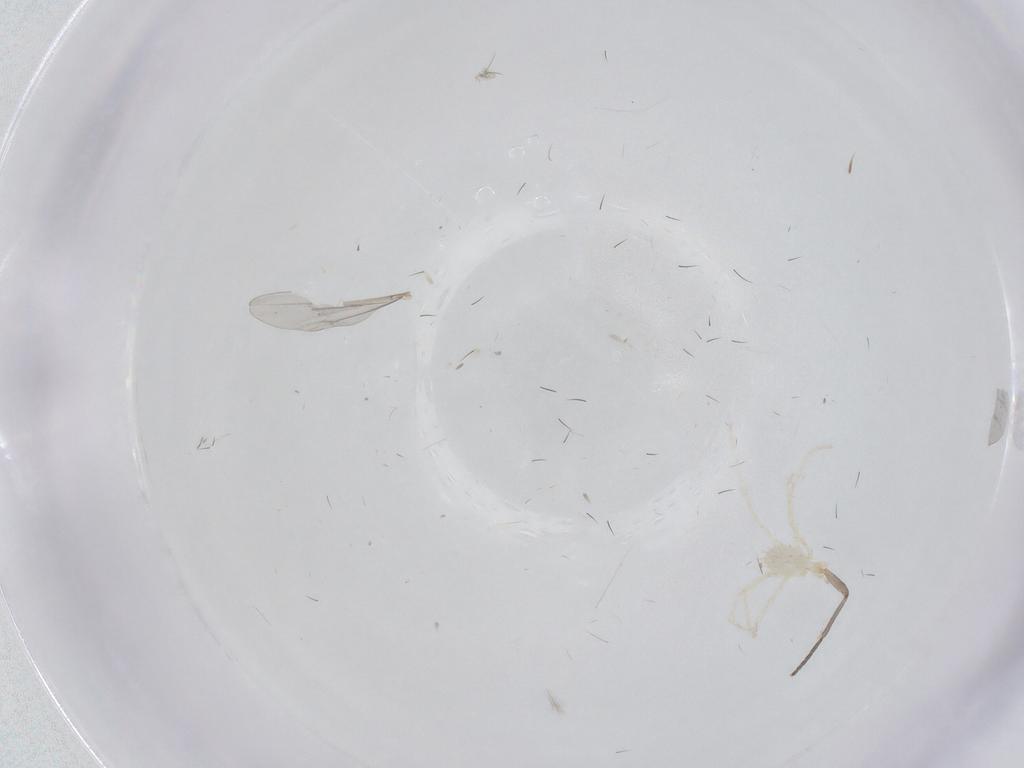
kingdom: Animalia
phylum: Arthropoda
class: Insecta
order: Diptera
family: Sciaridae
